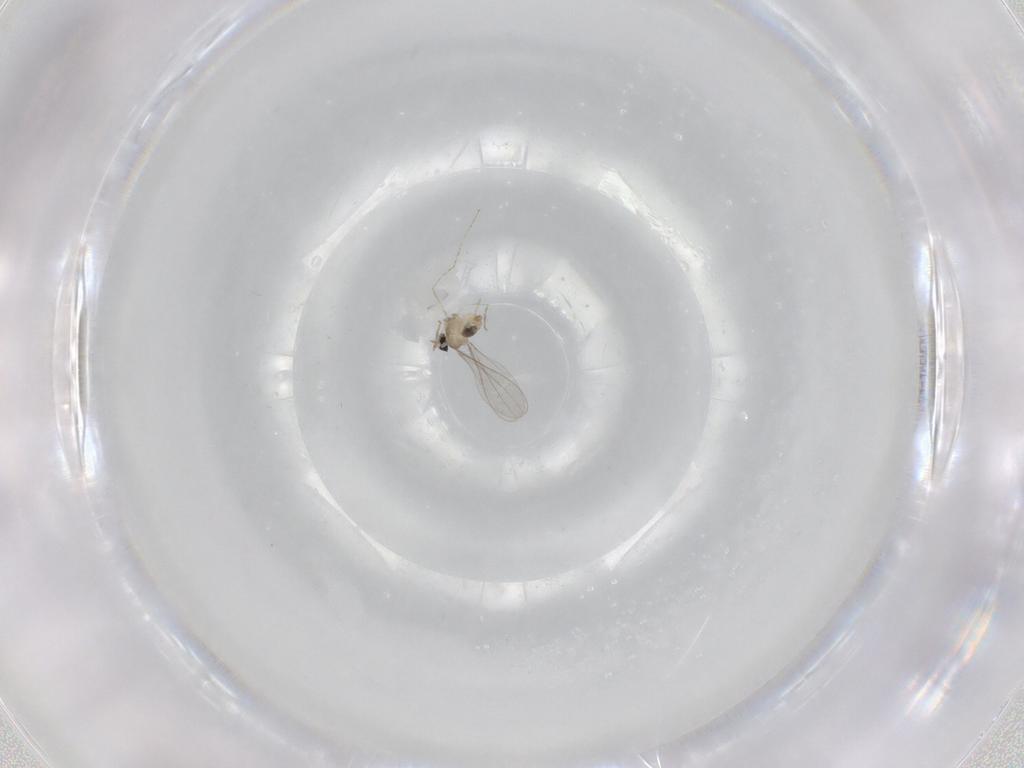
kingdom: Animalia
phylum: Arthropoda
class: Insecta
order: Diptera
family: Cecidomyiidae
